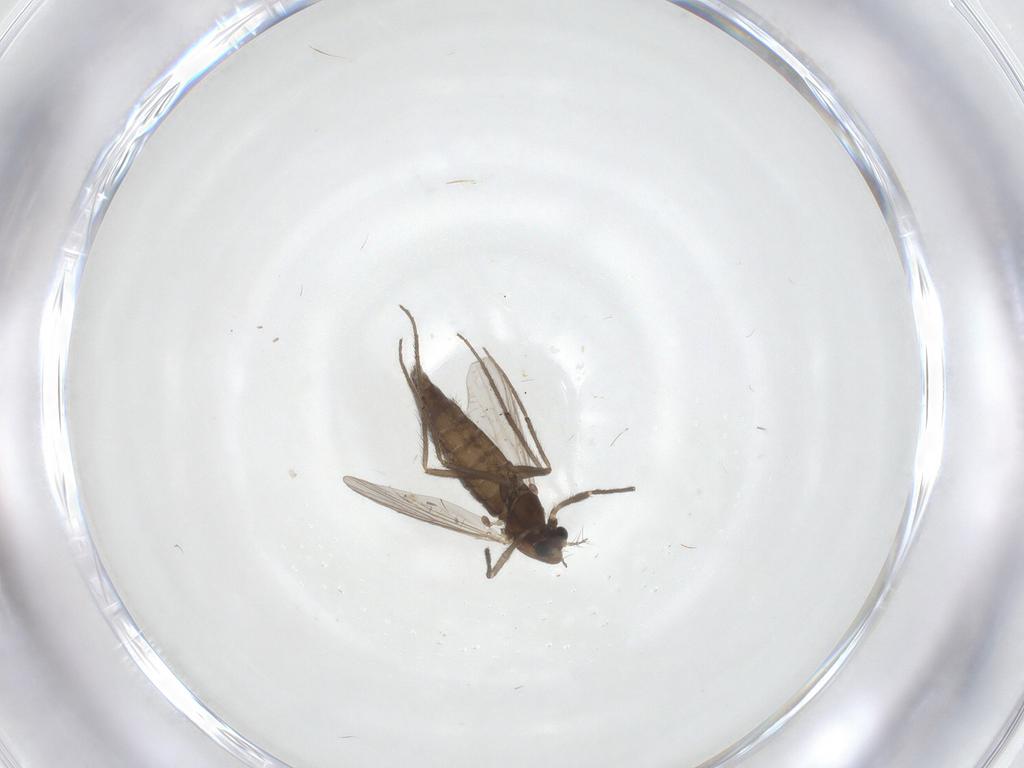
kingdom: Animalia
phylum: Arthropoda
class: Insecta
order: Diptera
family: Chironomidae
